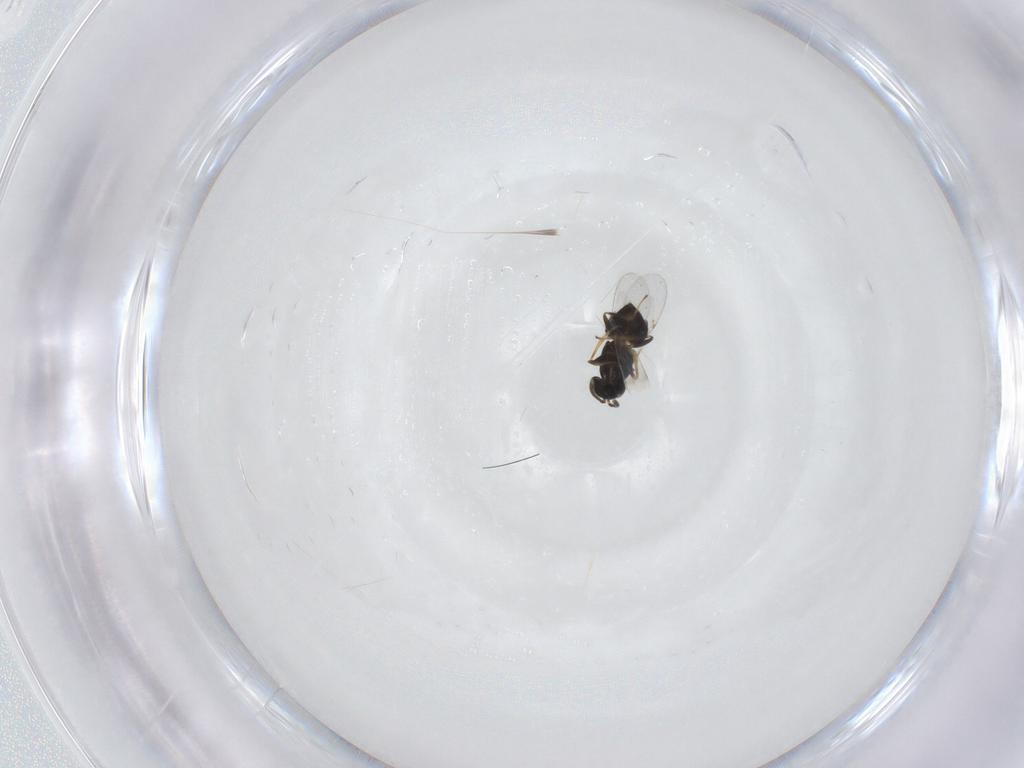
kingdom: Animalia
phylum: Arthropoda
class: Insecta
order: Hymenoptera
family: Encyrtidae
